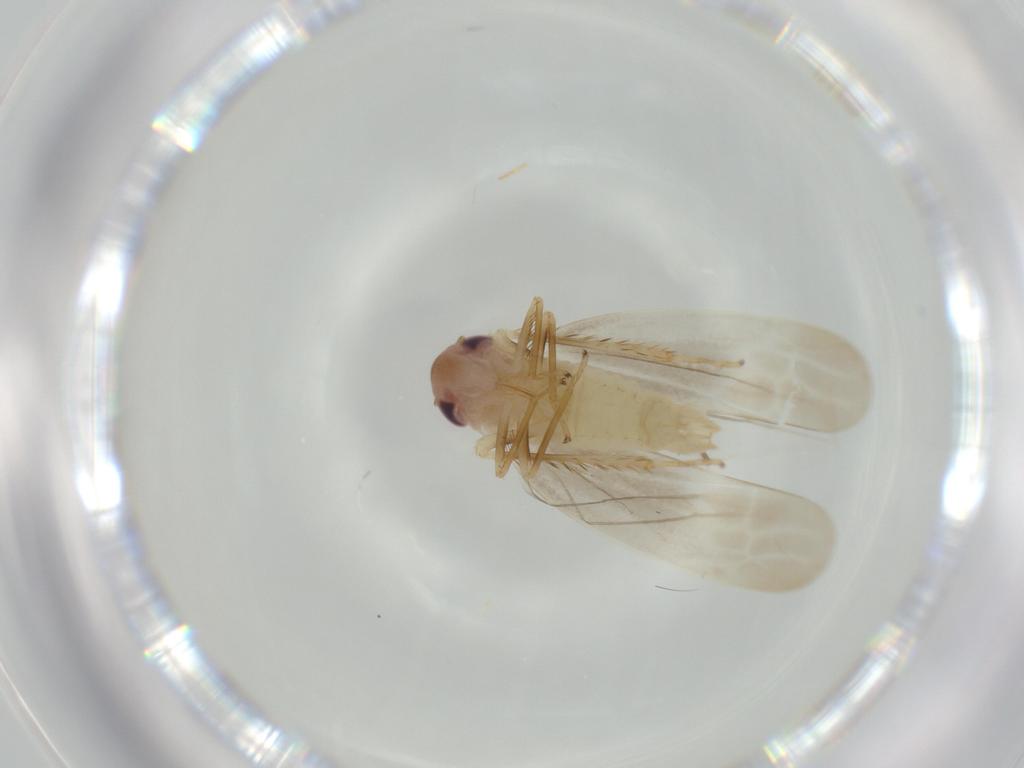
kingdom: Animalia
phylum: Arthropoda
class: Insecta
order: Hemiptera
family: Cicadellidae
